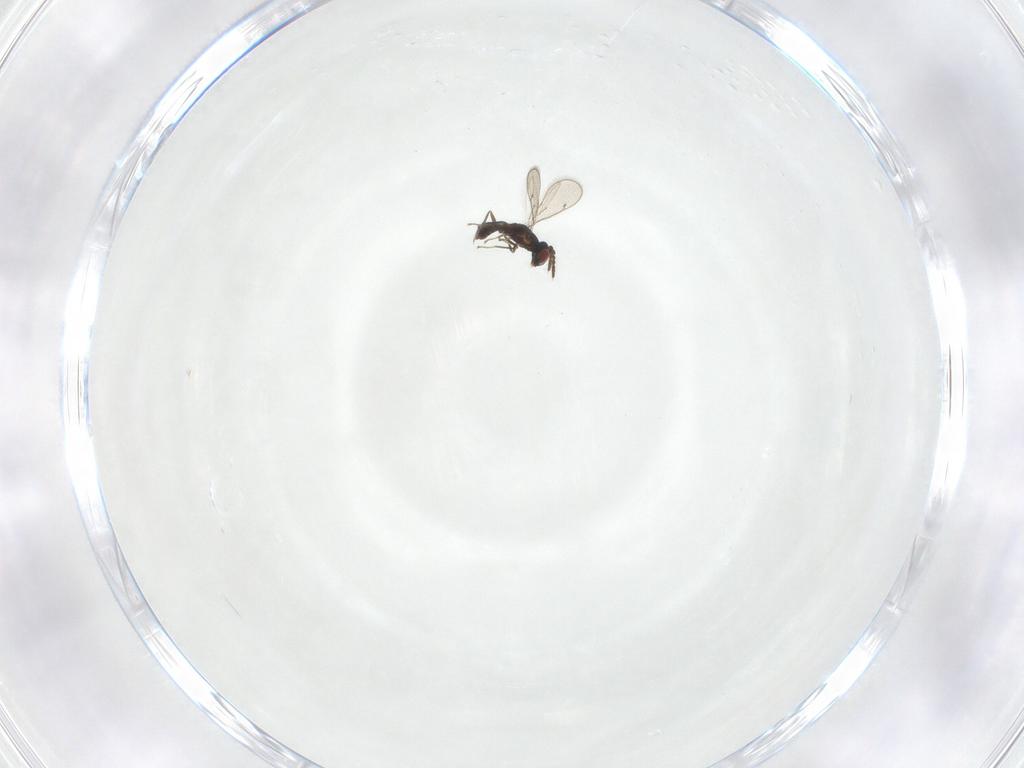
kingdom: Animalia
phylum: Arthropoda
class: Insecta
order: Hymenoptera
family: Eulophidae
